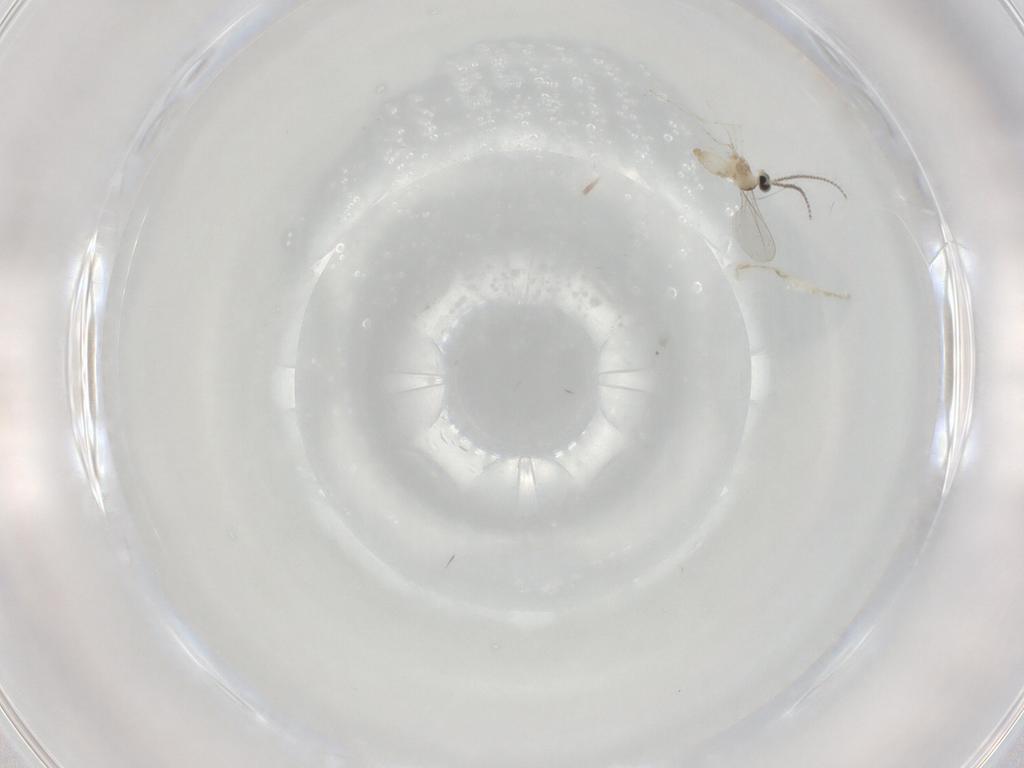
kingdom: Animalia
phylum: Arthropoda
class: Insecta
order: Diptera
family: Cecidomyiidae
